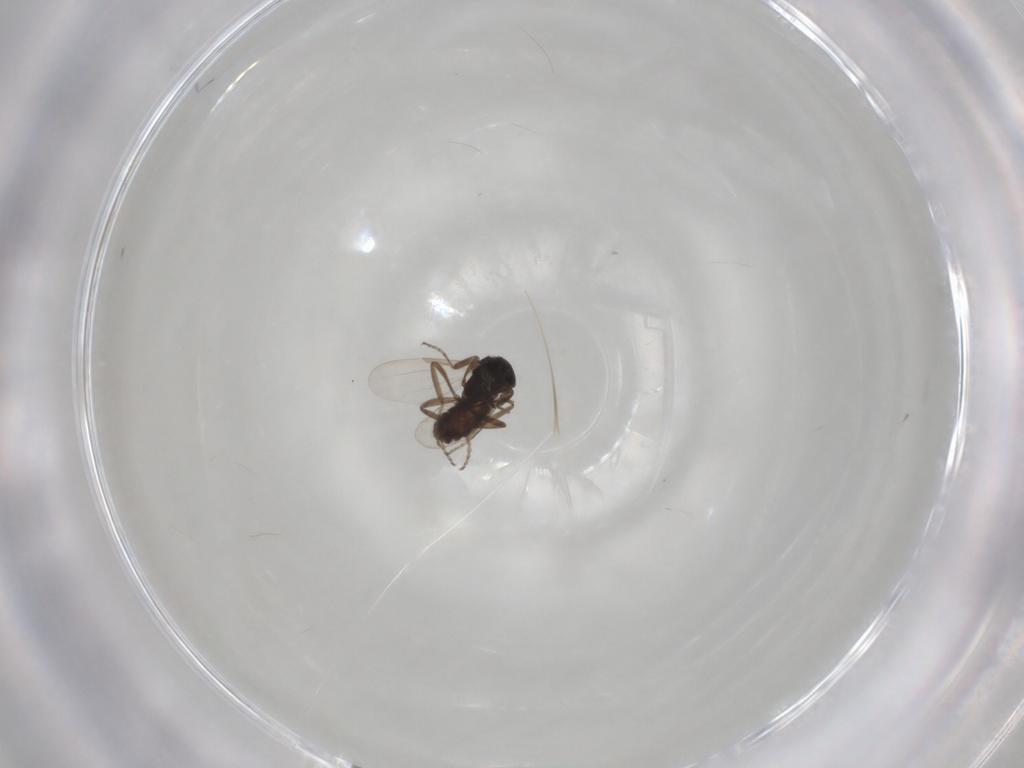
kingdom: Animalia
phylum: Arthropoda
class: Insecta
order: Diptera
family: Ceratopogonidae
